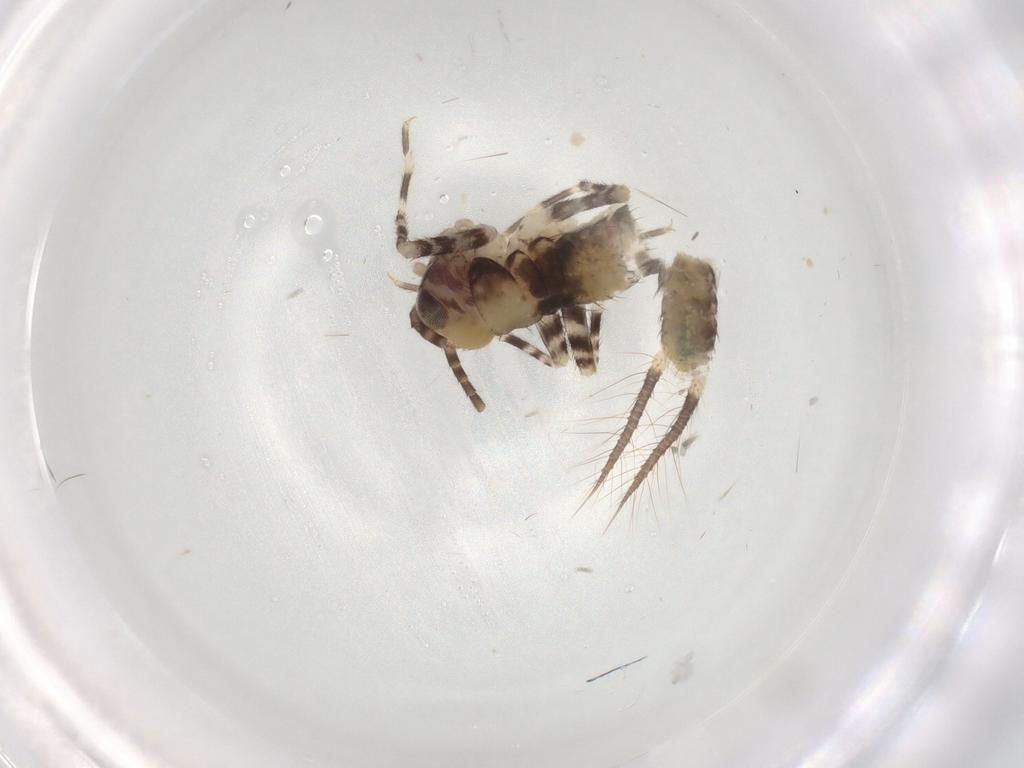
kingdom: Animalia
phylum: Arthropoda
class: Insecta
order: Orthoptera
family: Gryllidae
